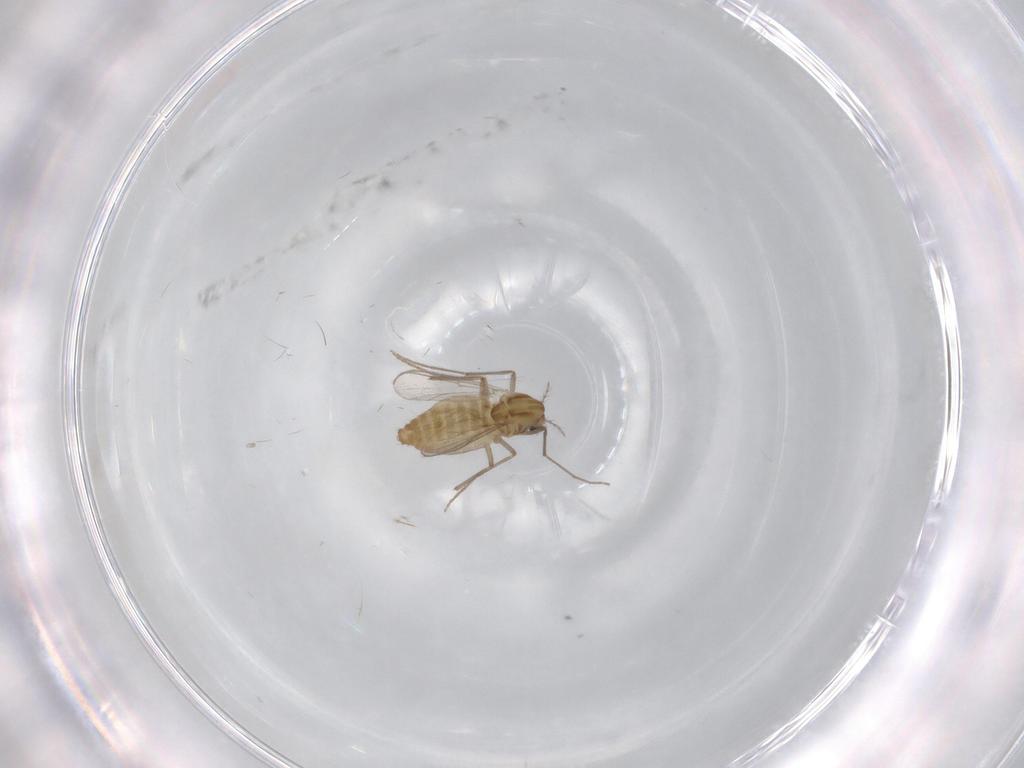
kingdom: Animalia
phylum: Arthropoda
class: Insecta
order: Diptera
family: Chironomidae
